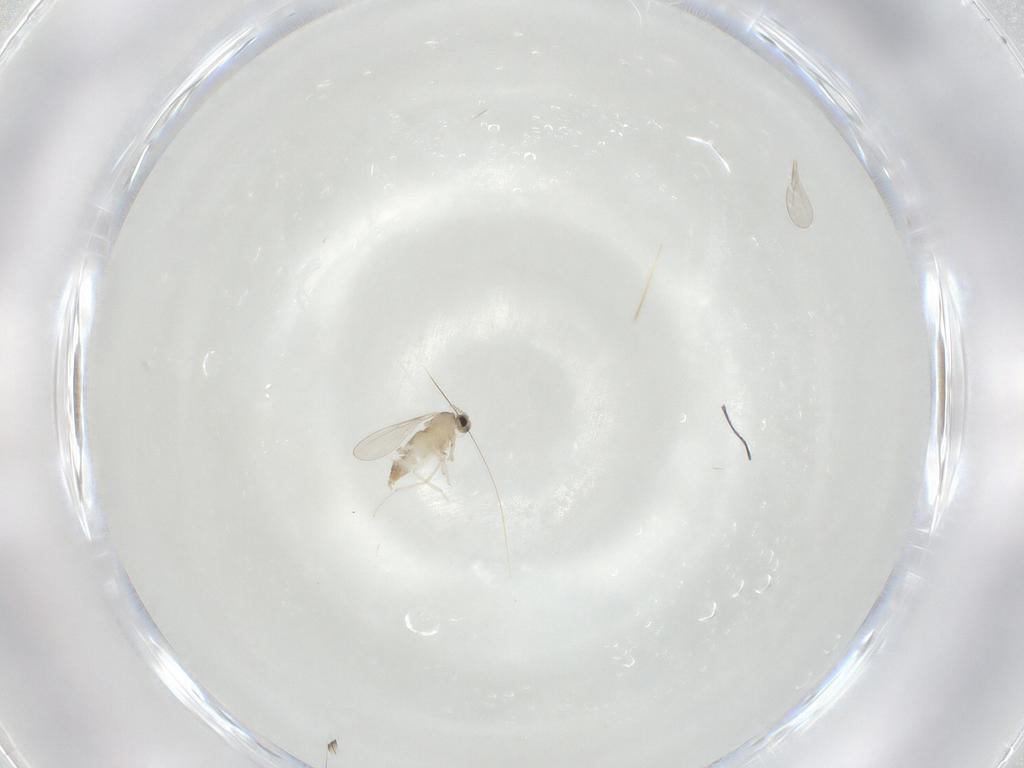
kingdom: Animalia
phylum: Arthropoda
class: Insecta
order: Diptera
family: Cecidomyiidae
